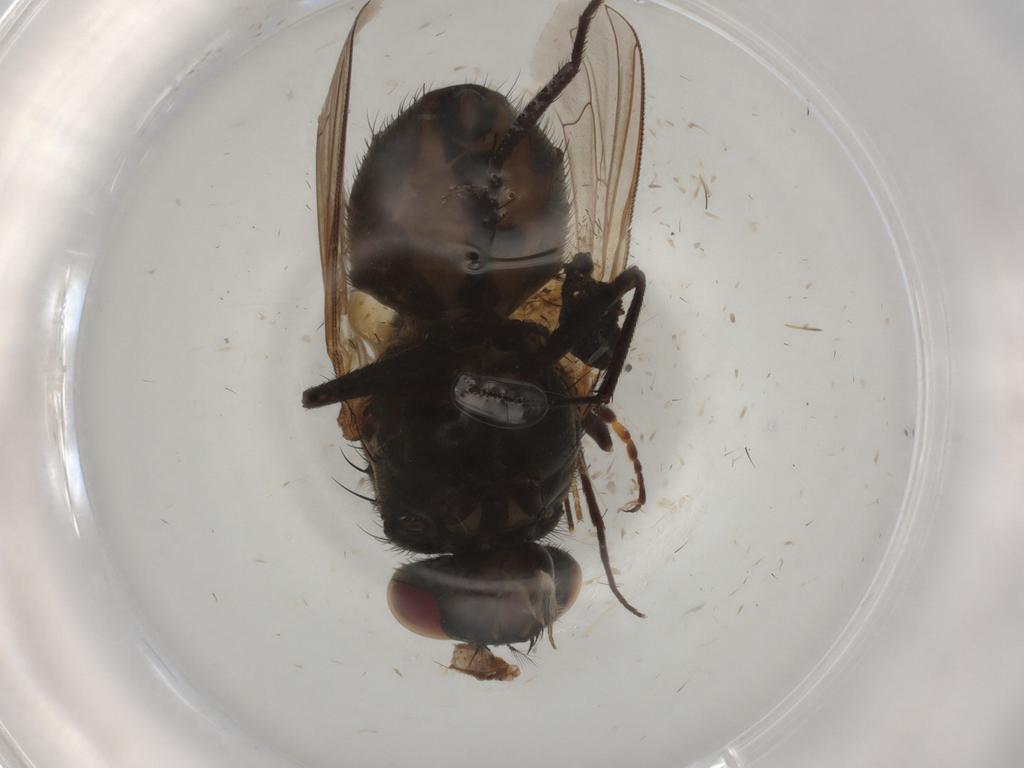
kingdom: Animalia
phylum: Arthropoda
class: Insecta
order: Diptera
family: Muscidae
